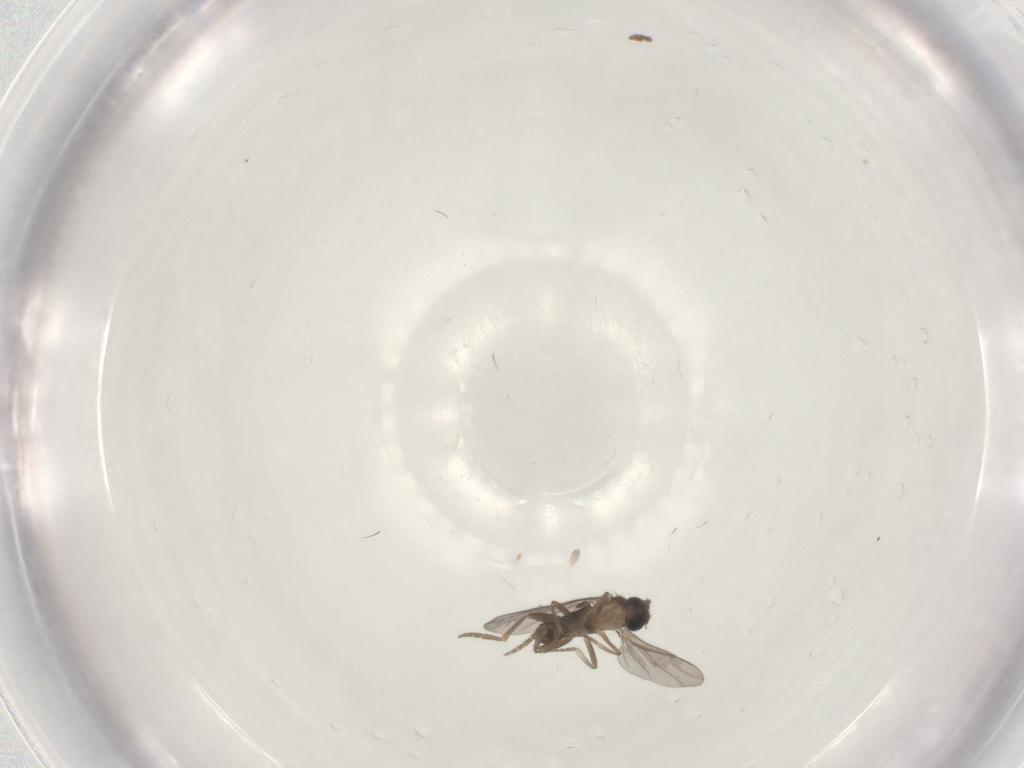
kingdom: Animalia
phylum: Arthropoda
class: Insecta
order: Diptera
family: Cecidomyiidae
